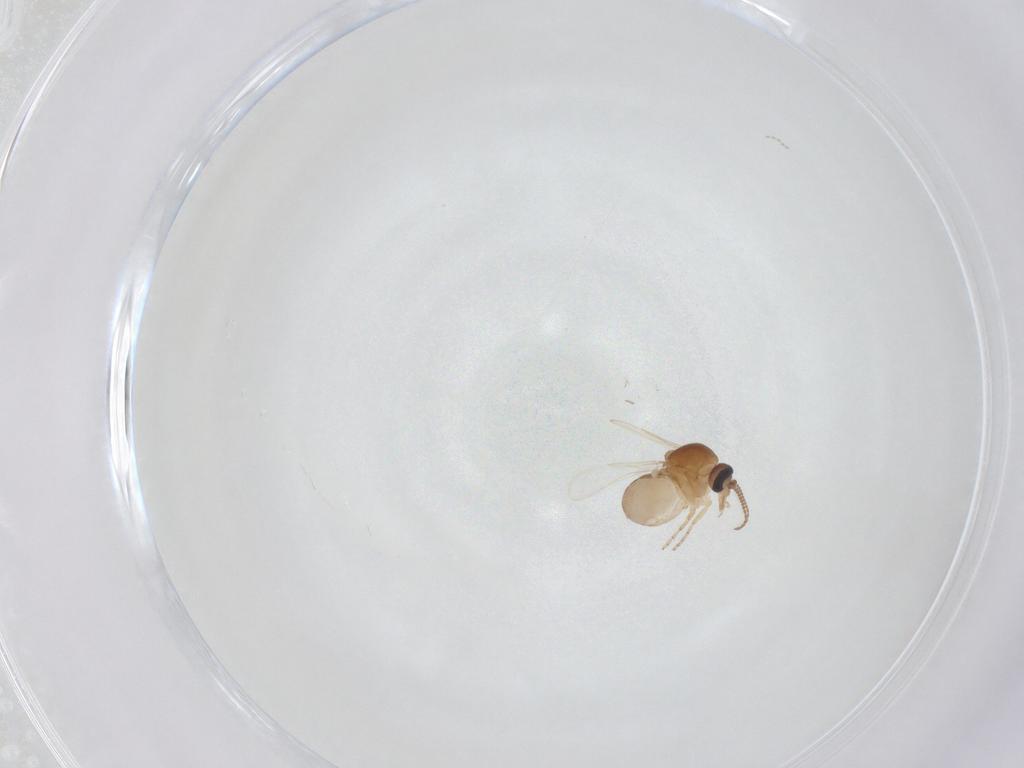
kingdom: Animalia
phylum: Arthropoda
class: Insecta
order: Diptera
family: Ceratopogonidae
